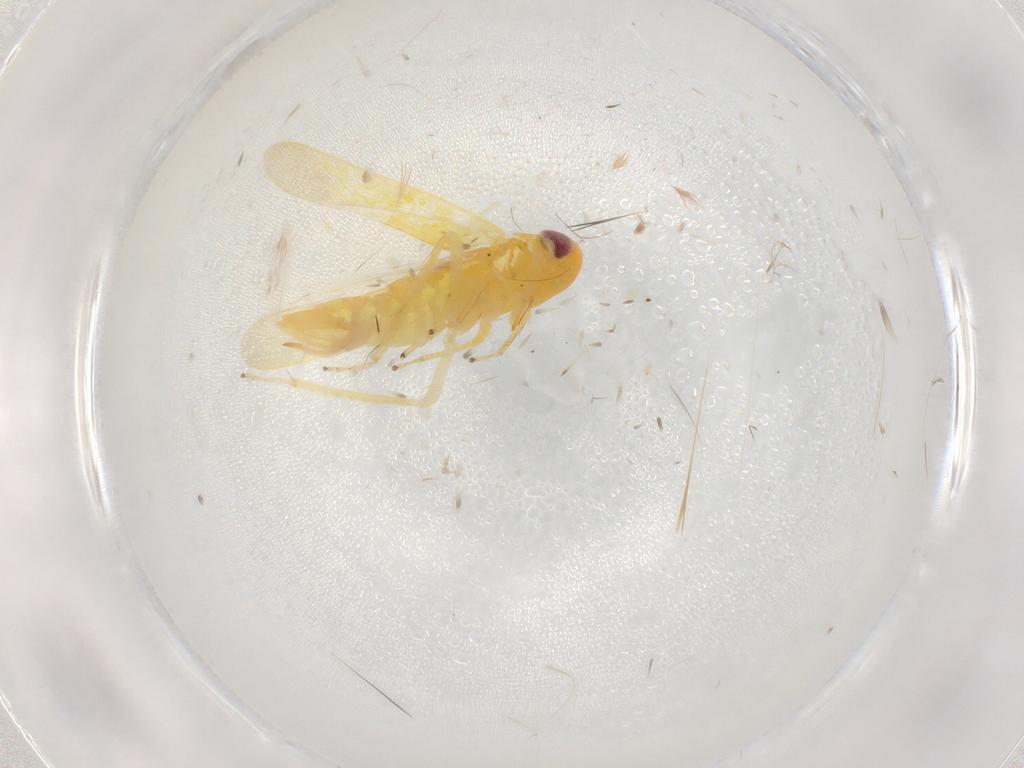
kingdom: Animalia
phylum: Arthropoda
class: Insecta
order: Hemiptera
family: Cicadellidae
